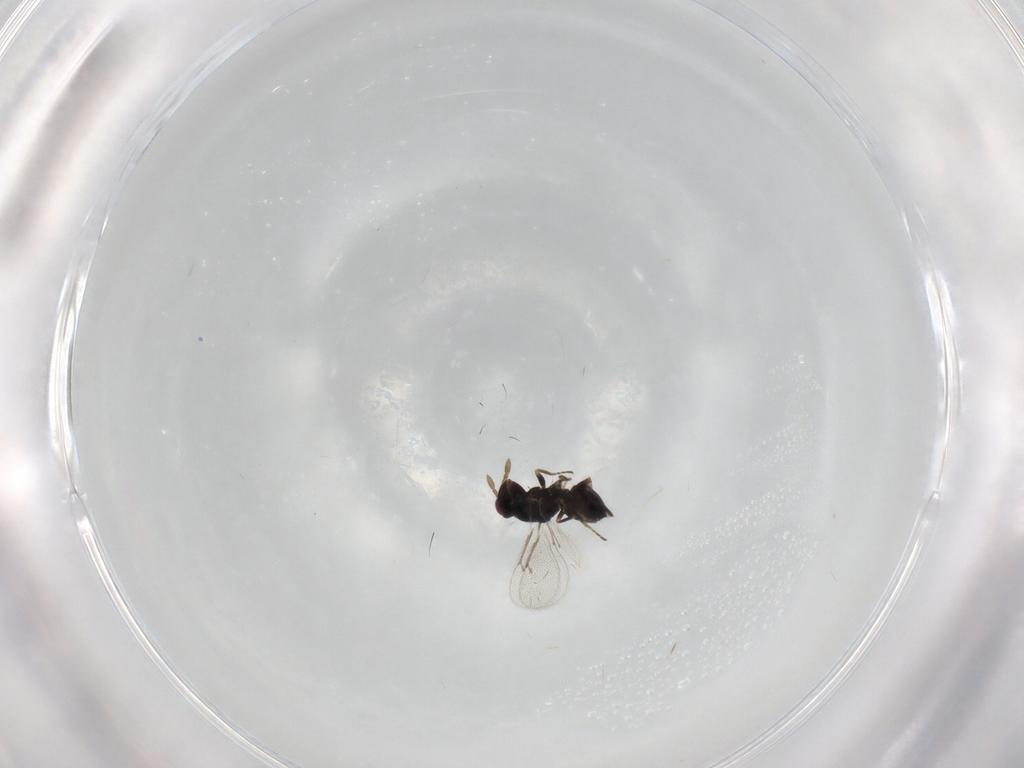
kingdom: Animalia
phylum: Arthropoda
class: Insecta
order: Hymenoptera
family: Eulophidae
